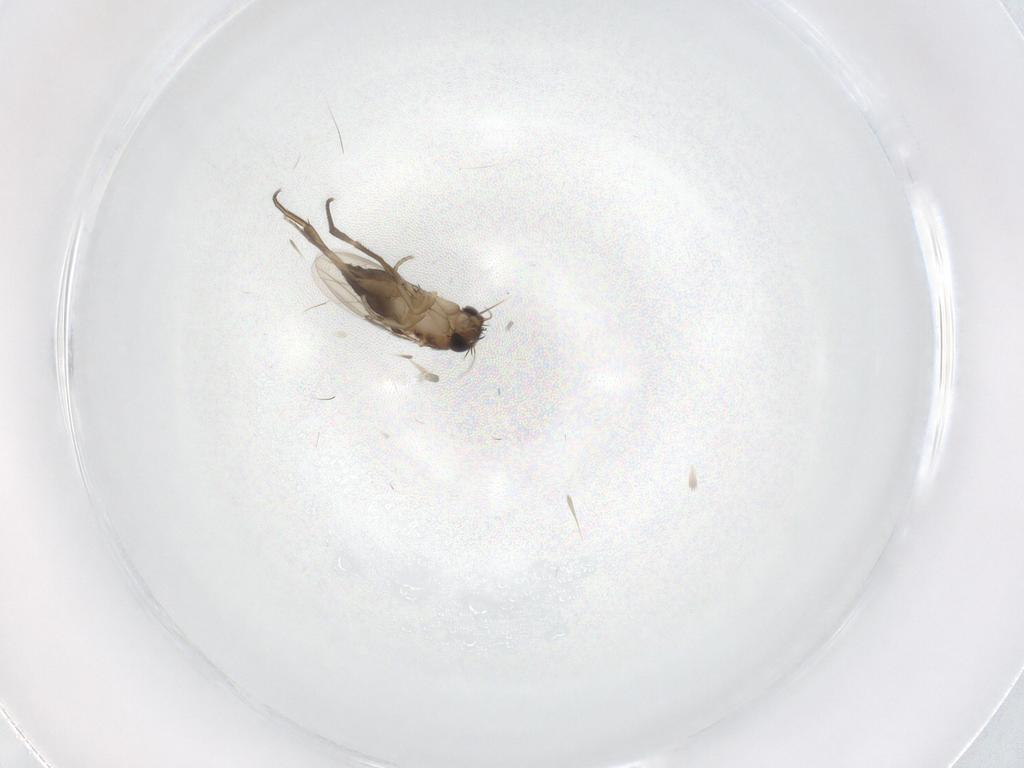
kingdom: Animalia
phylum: Arthropoda
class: Insecta
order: Diptera
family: Phoridae
